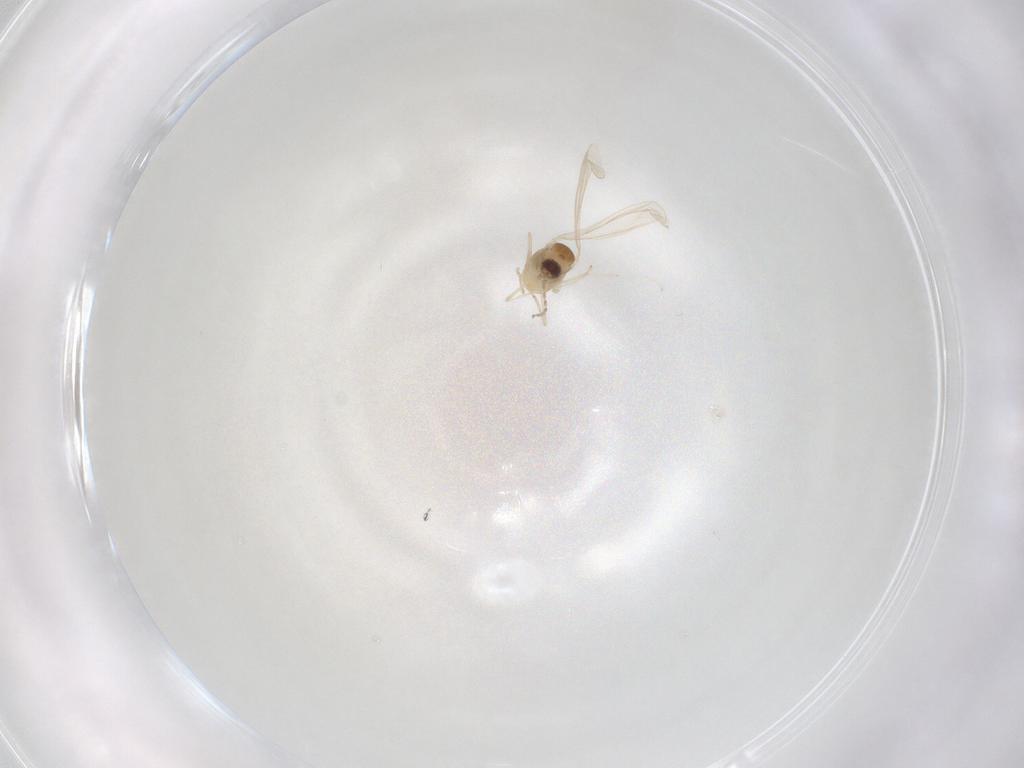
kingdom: Animalia
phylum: Arthropoda
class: Insecta
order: Diptera
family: Cecidomyiidae
